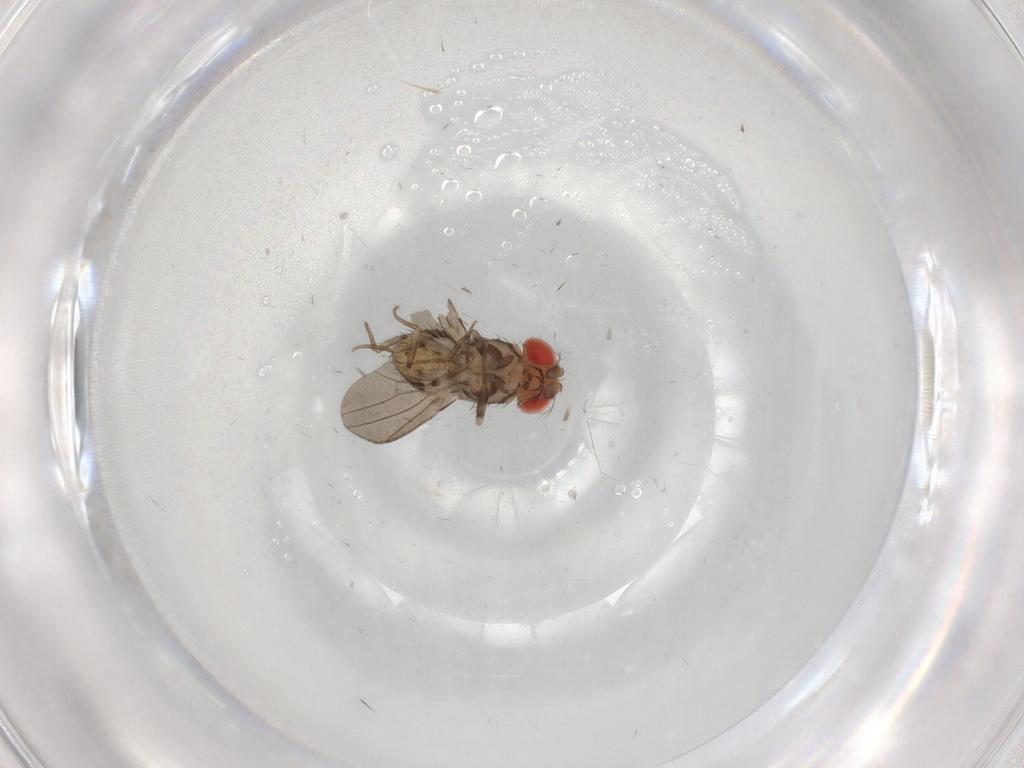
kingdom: Animalia
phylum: Arthropoda
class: Insecta
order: Diptera
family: Drosophilidae
